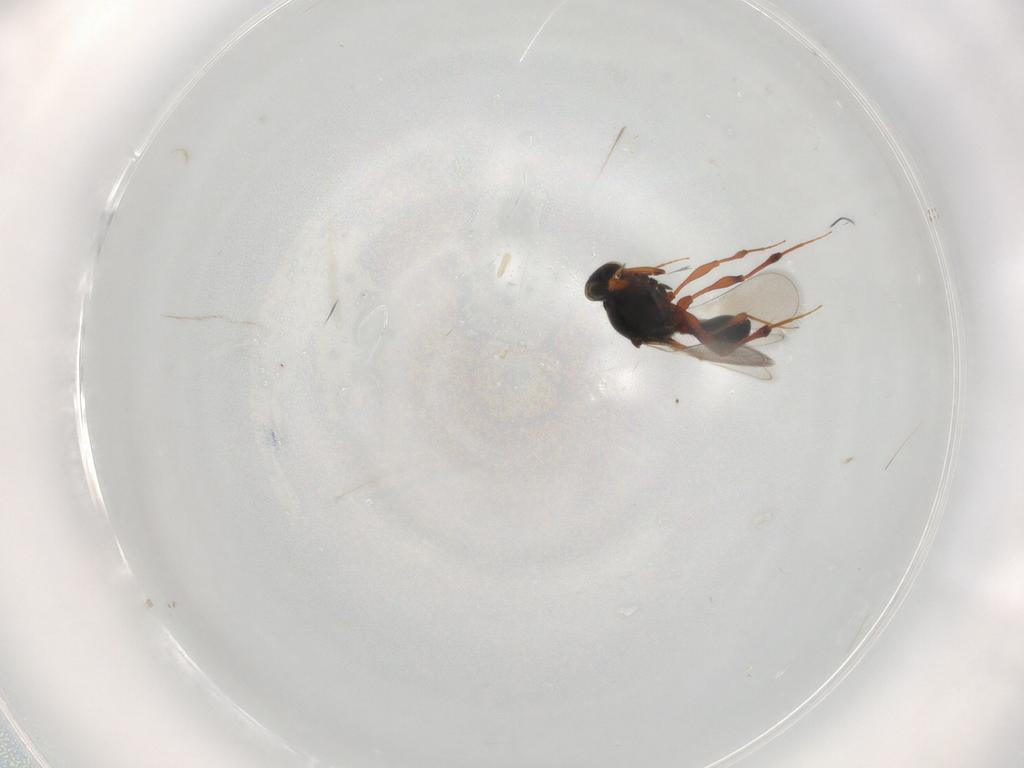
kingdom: Animalia
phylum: Arthropoda
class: Insecta
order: Hymenoptera
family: Platygastridae
